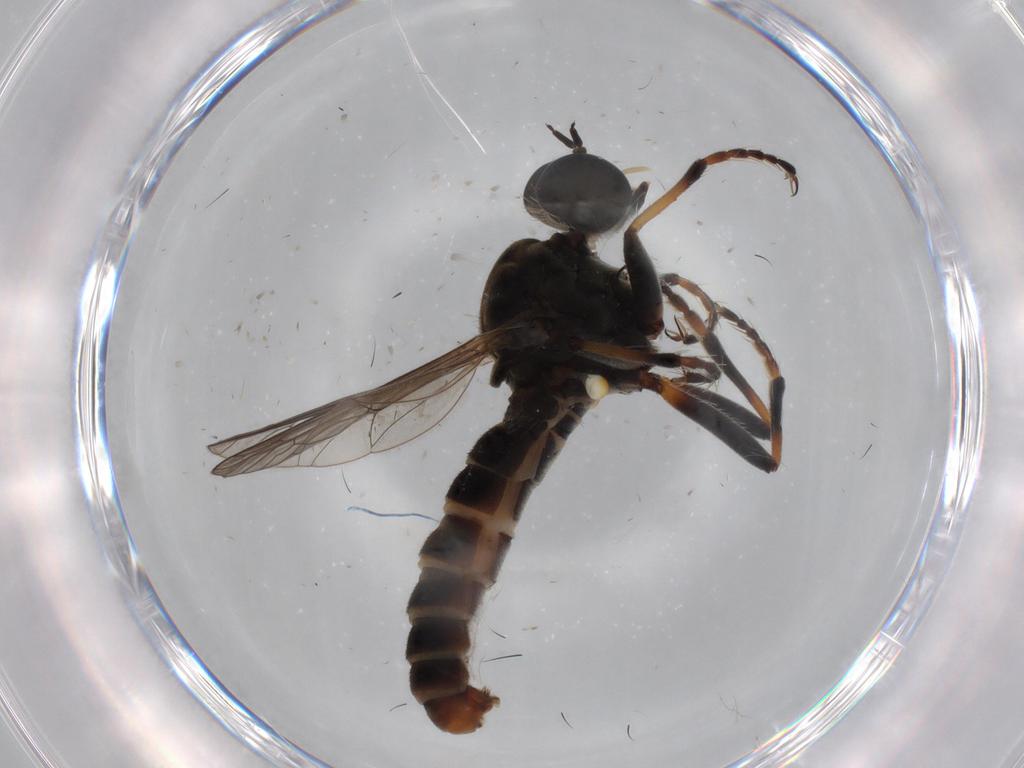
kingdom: Animalia
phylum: Arthropoda
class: Insecta
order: Diptera
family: Phoridae
